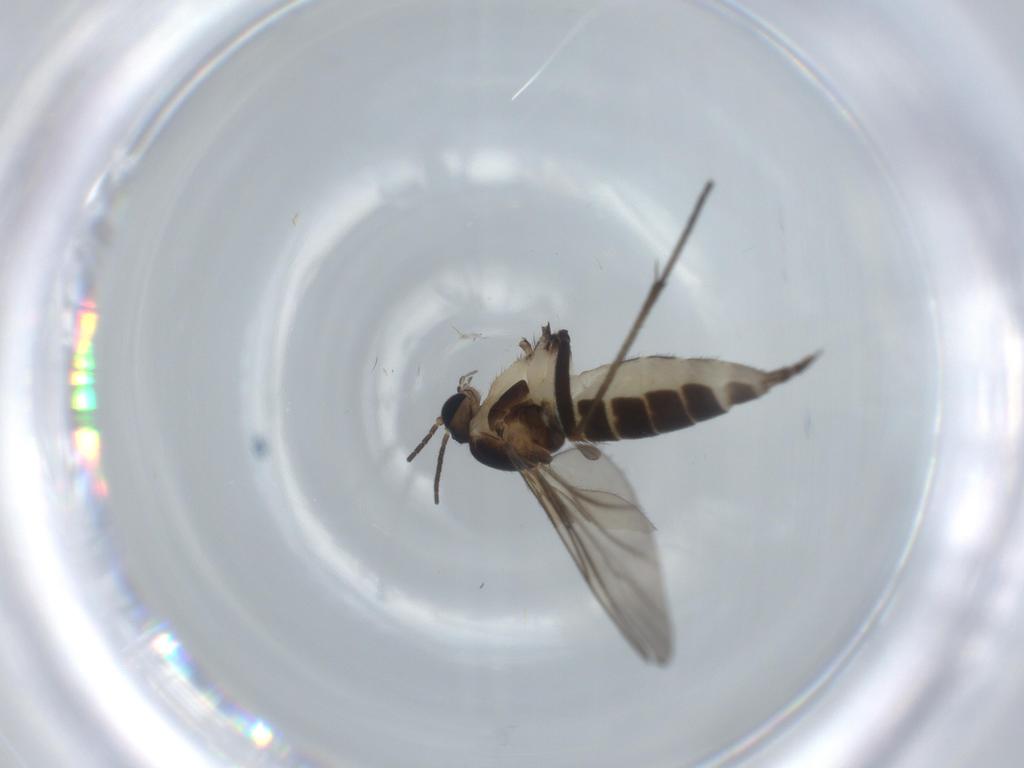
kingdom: Animalia
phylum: Arthropoda
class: Insecta
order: Diptera
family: Sciaridae
